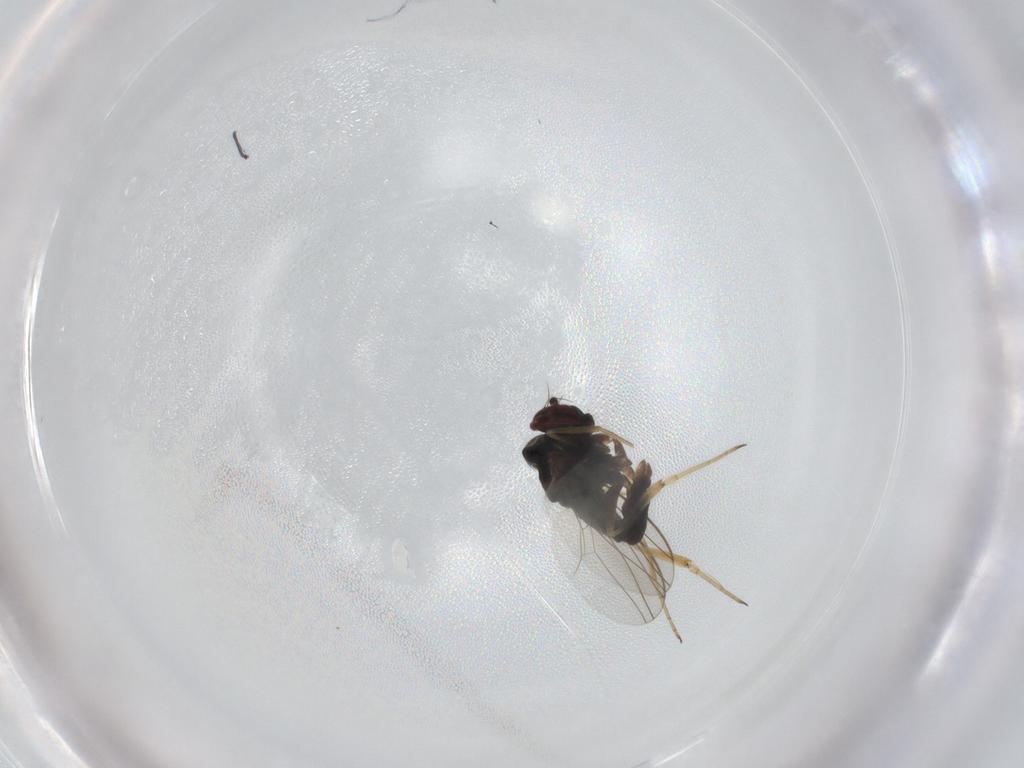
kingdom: Animalia
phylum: Arthropoda
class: Insecta
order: Diptera
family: Dolichopodidae
